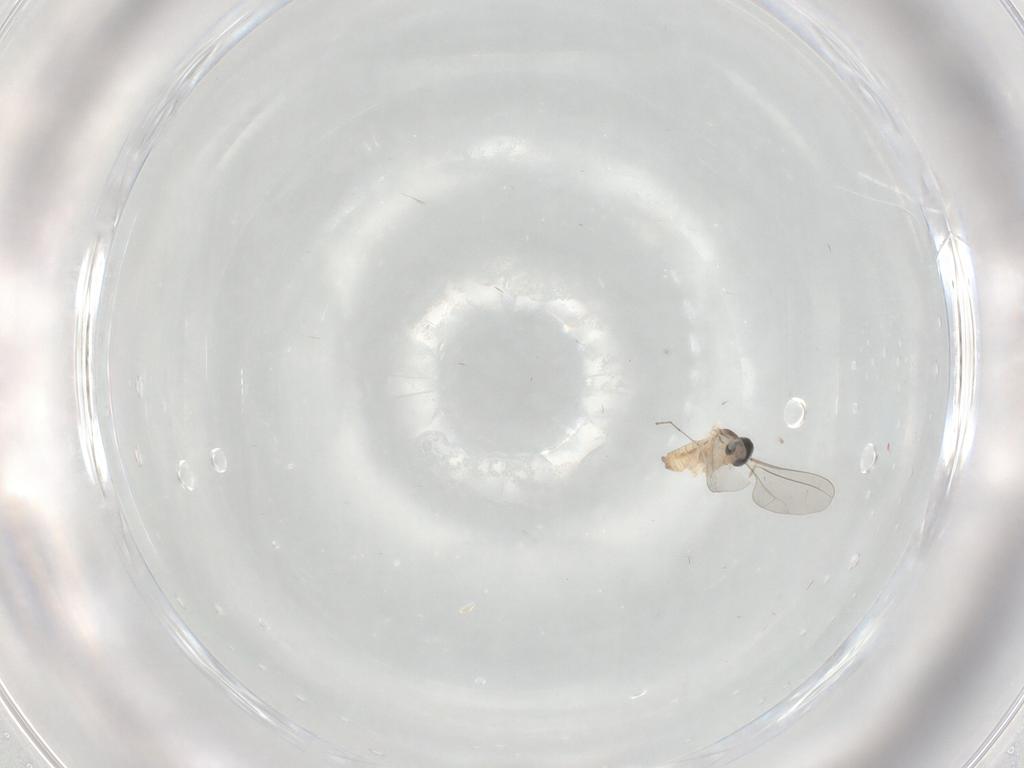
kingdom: Animalia
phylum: Arthropoda
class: Insecta
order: Diptera
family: Cecidomyiidae
